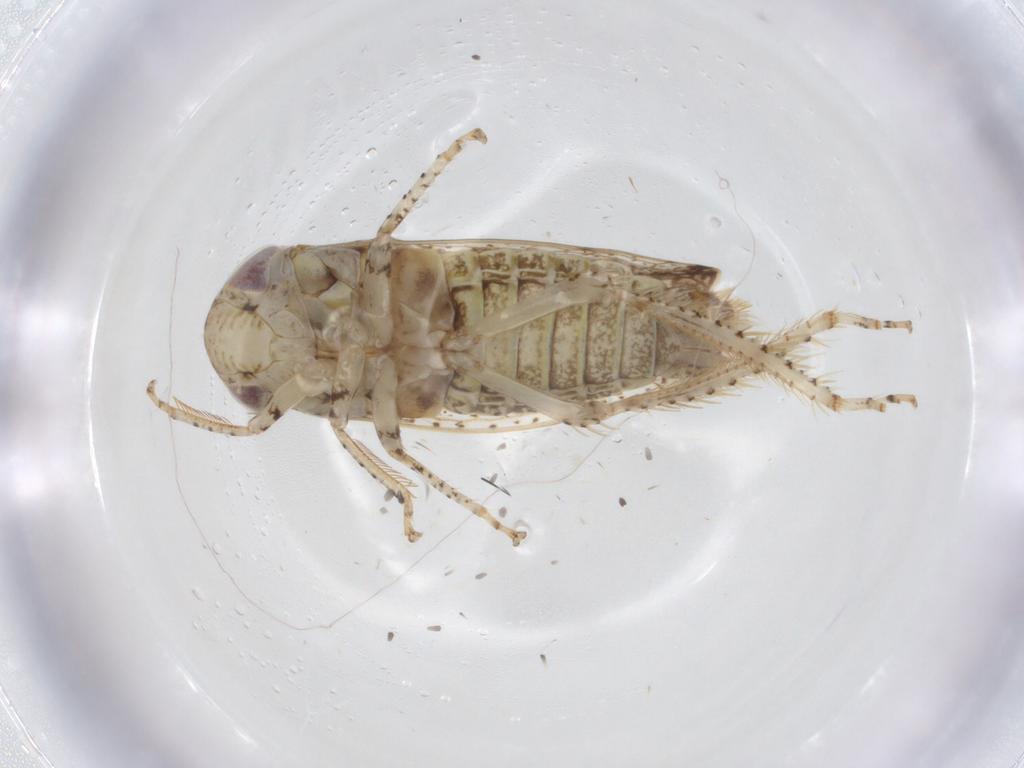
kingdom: Animalia
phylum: Arthropoda
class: Insecta
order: Hemiptera
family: Cicadellidae
